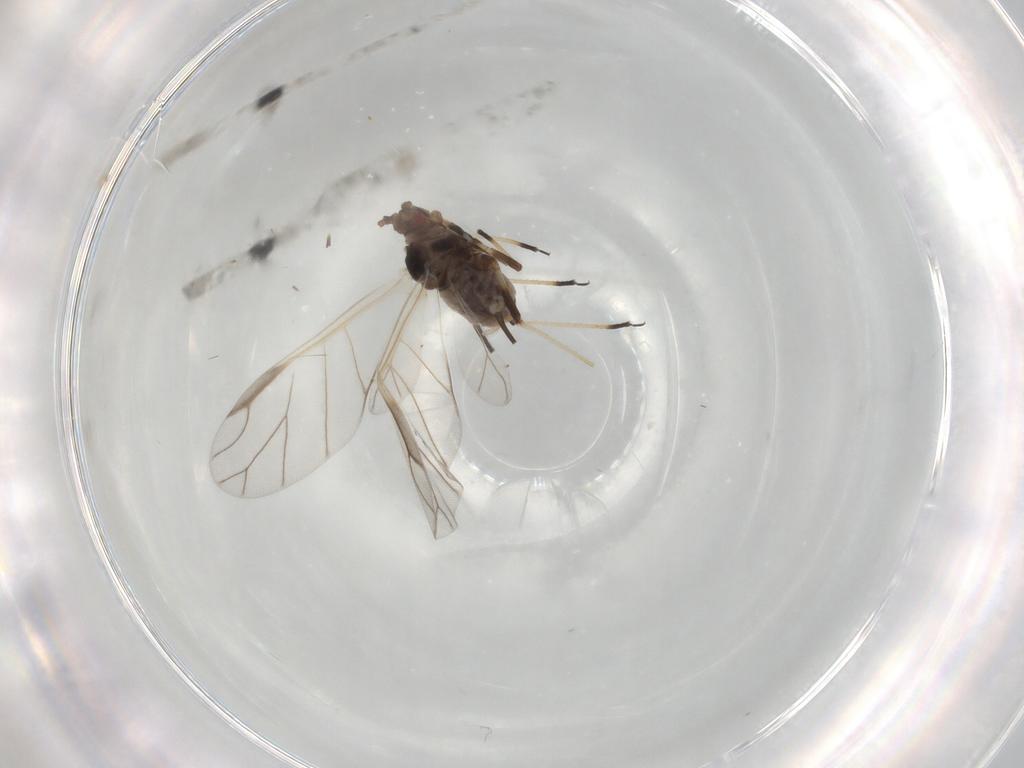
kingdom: Animalia
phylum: Arthropoda
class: Insecta
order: Hemiptera
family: Aphididae
